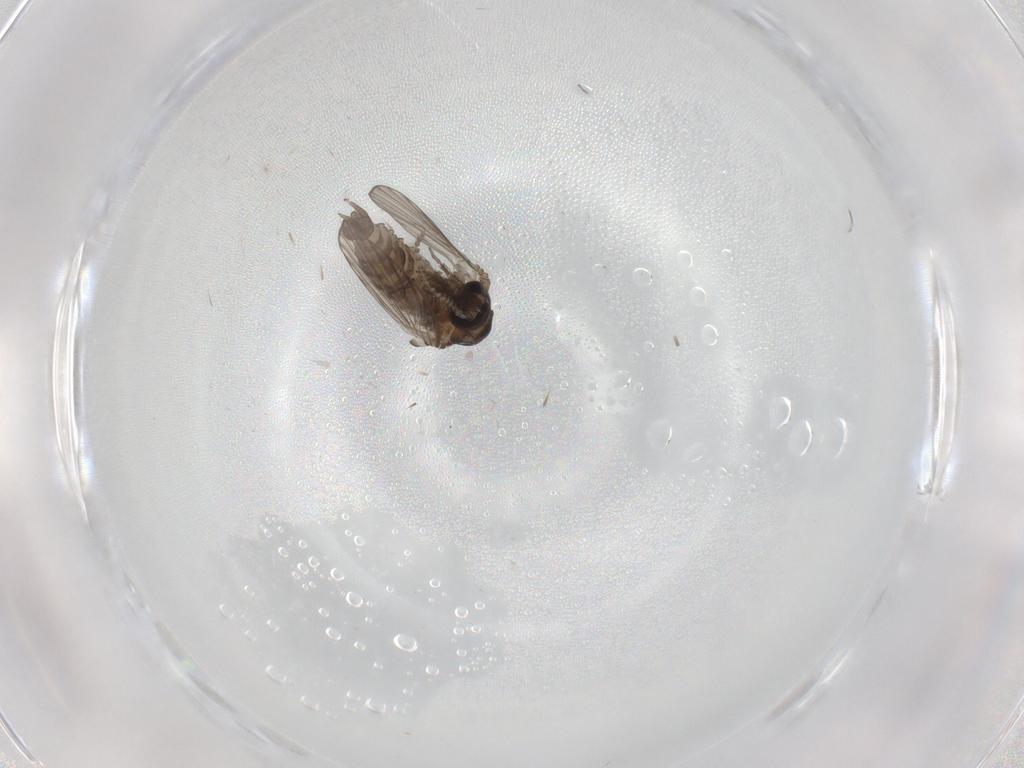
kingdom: Animalia
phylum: Arthropoda
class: Insecta
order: Diptera
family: Psychodidae
